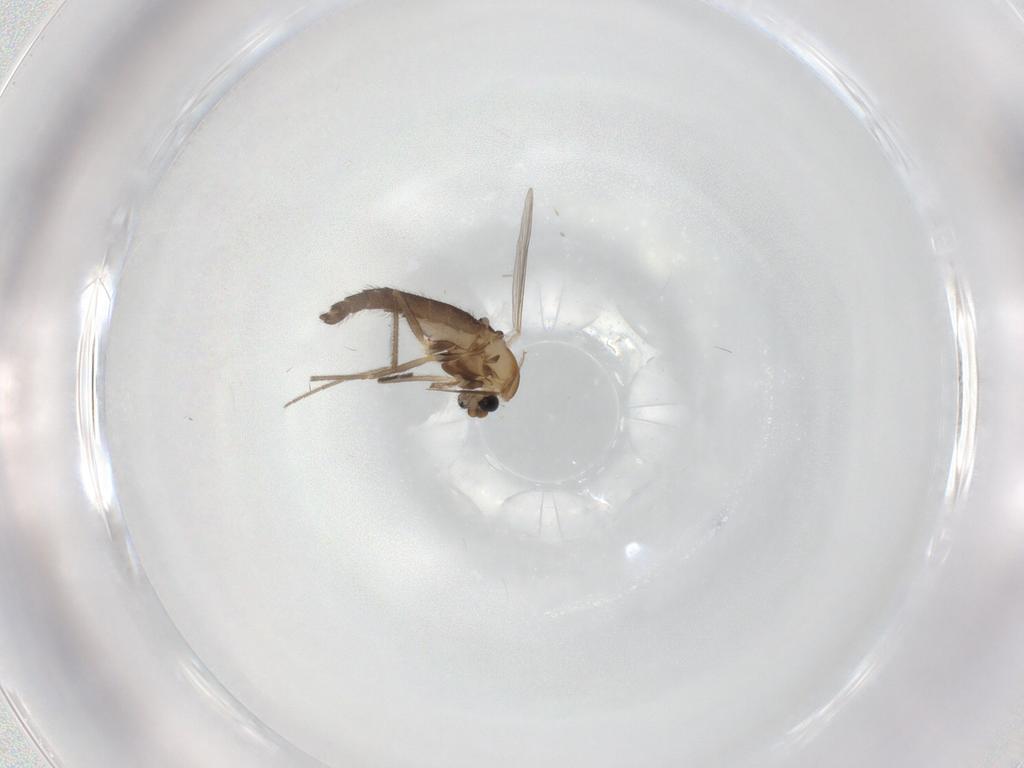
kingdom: Animalia
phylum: Arthropoda
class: Insecta
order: Diptera
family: Chironomidae
